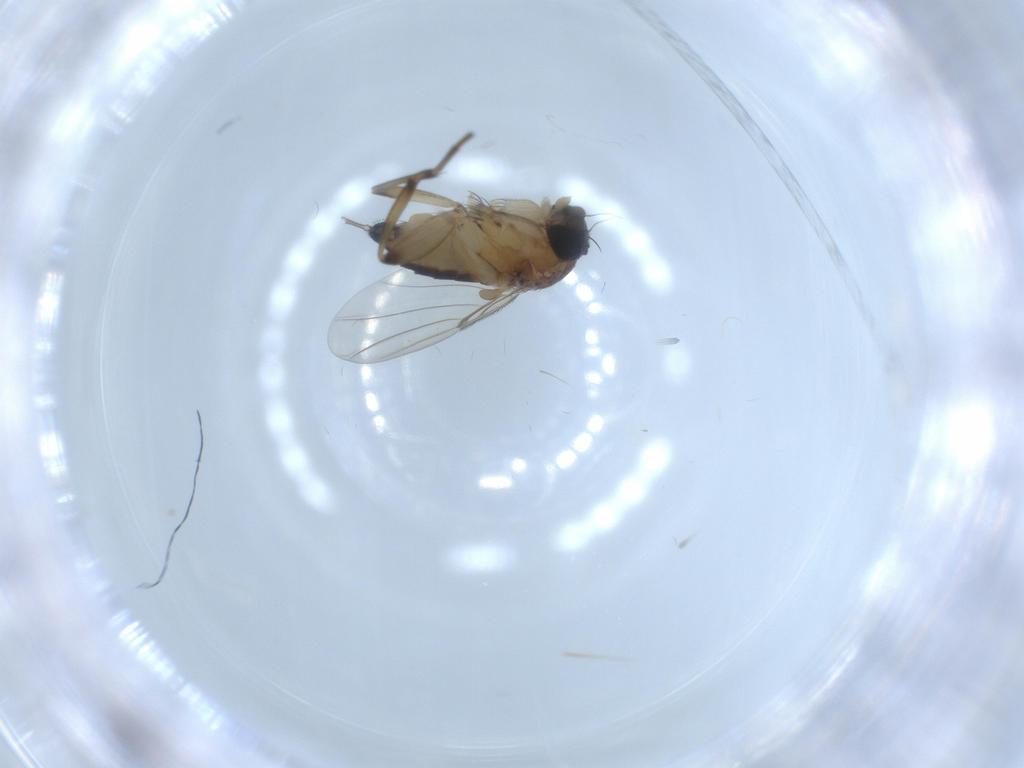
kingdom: Animalia
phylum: Arthropoda
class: Insecta
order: Diptera
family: Phoridae
